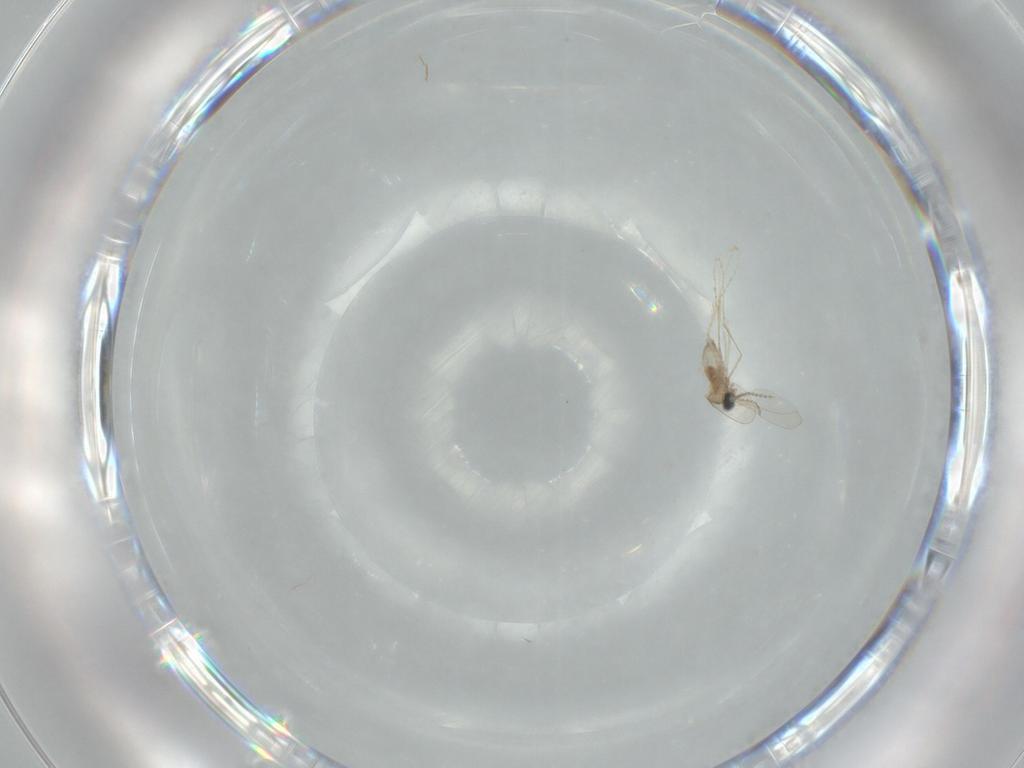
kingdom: Animalia
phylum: Arthropoda
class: Insecta
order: Diptera
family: Cecidomyiidae
